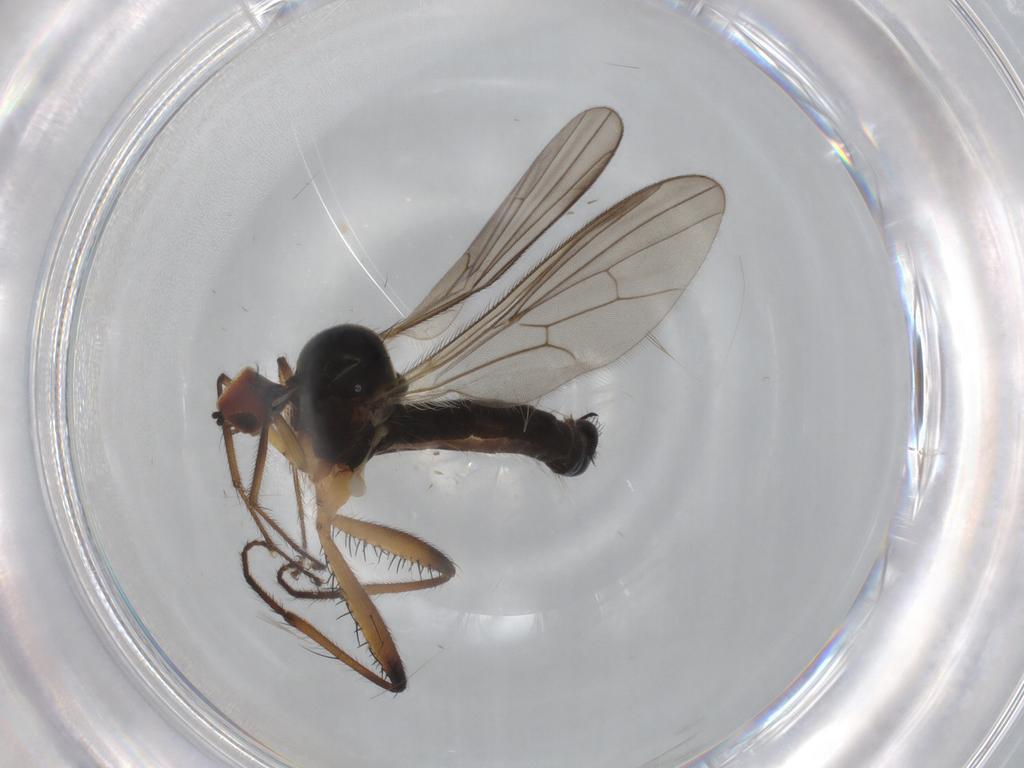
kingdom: Animalia
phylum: Arthropoda
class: Insecta
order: Diptera
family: Hybotidae
